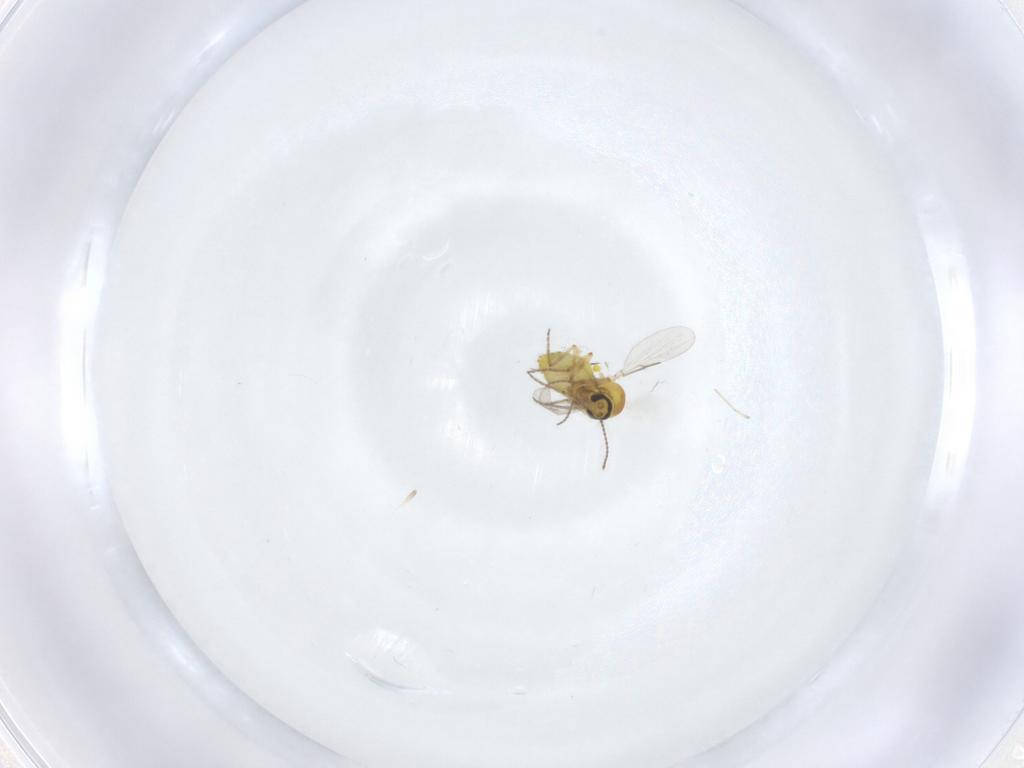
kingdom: Animalia
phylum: Arthropoda
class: Insecta
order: Diptera
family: Ceratopogonidae
